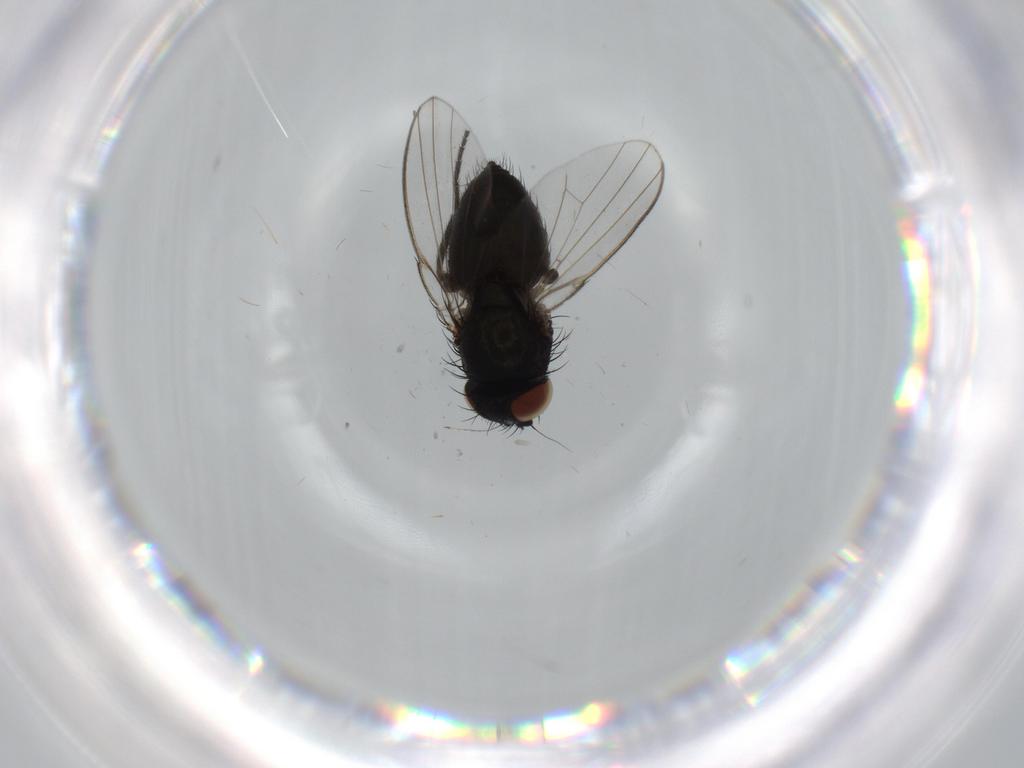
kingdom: Animalia
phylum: Arthropoda
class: Insecta
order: Diptera
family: Milichiidae
